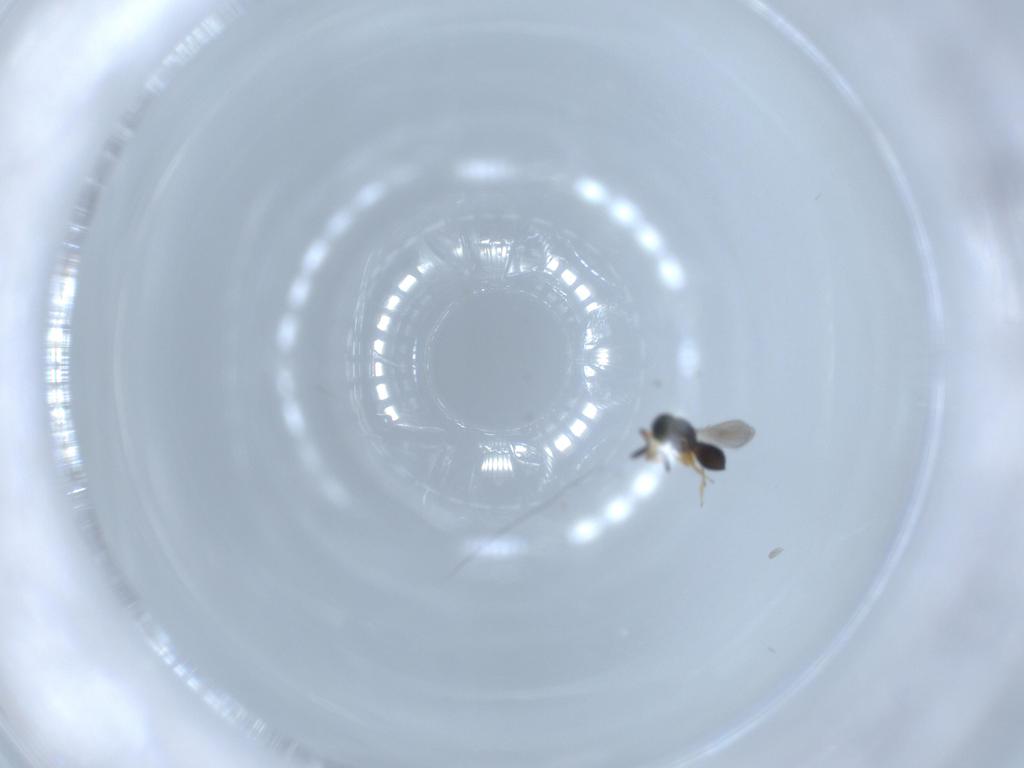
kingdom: Animalia
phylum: Arthropoda
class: Insecta
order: Hymenoptera
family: Scelionidae
